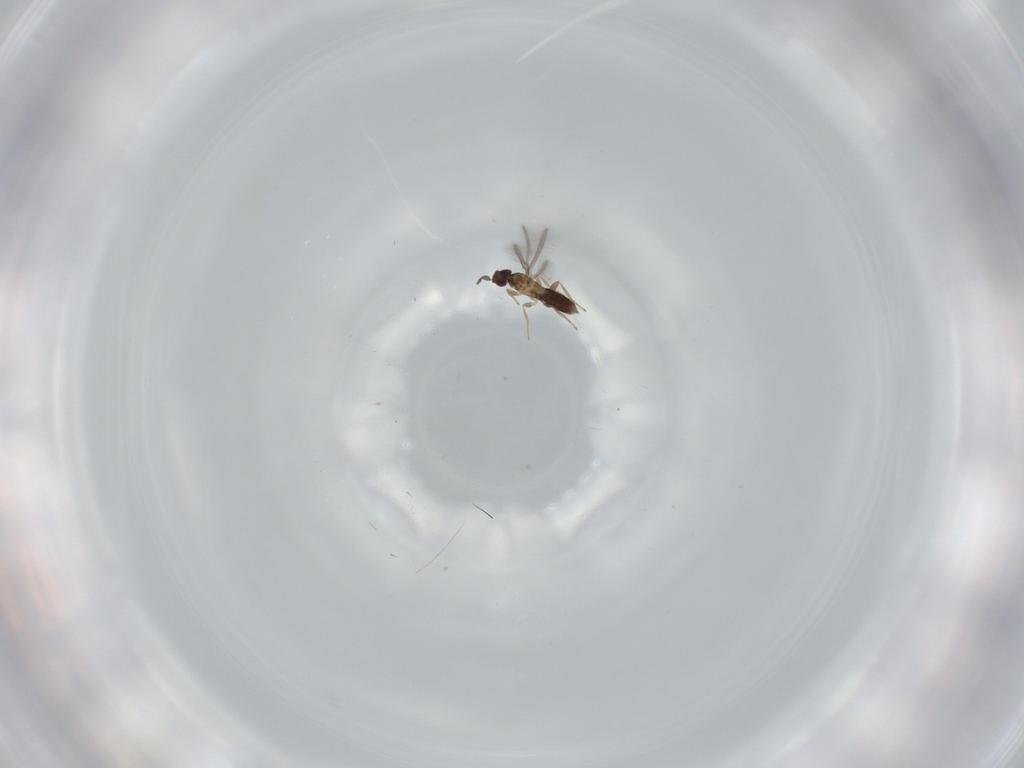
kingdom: Animalia
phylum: Arthropoda
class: Insecta
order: Hymenoptera
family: Mymaridae
